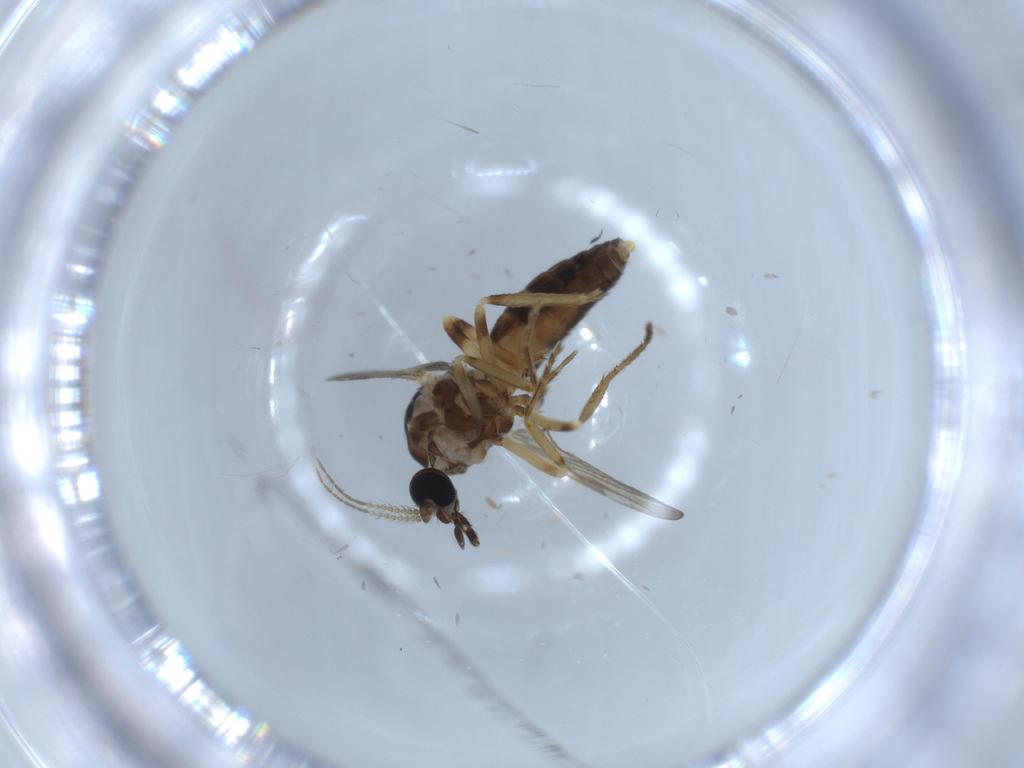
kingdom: Animalia
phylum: Arthropoda
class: Insecta
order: Diptera
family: Ceratopogonidae
